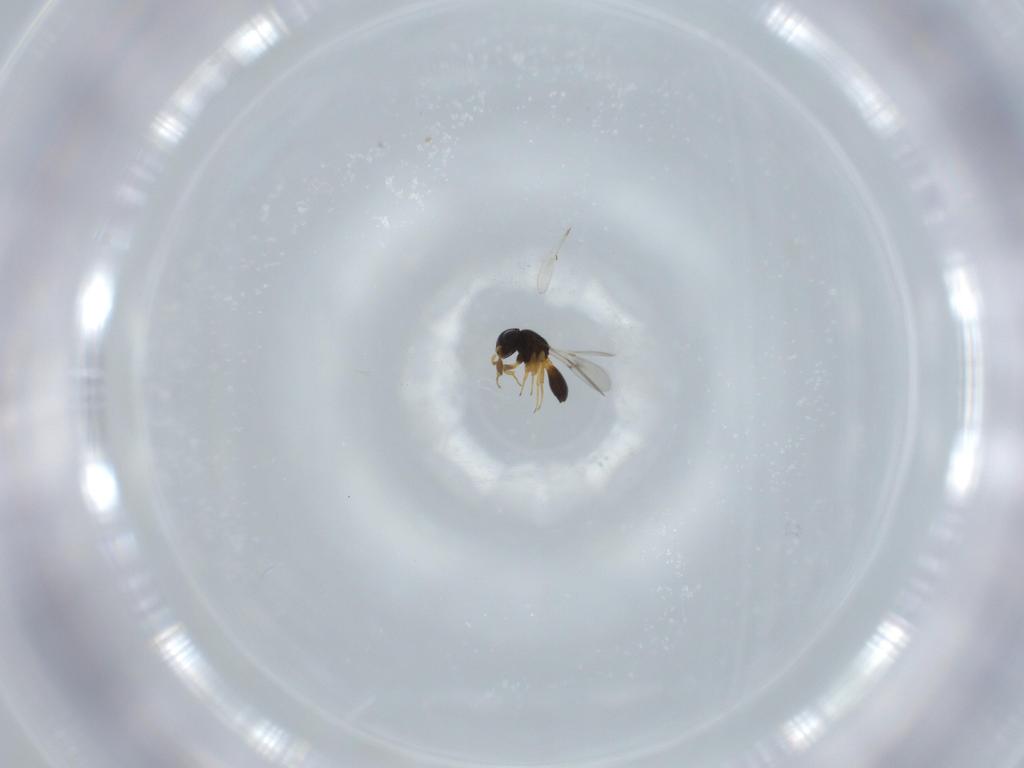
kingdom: Animalia
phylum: Arthropoda
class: Insecta
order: Hymenoptera
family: Scelionidae
